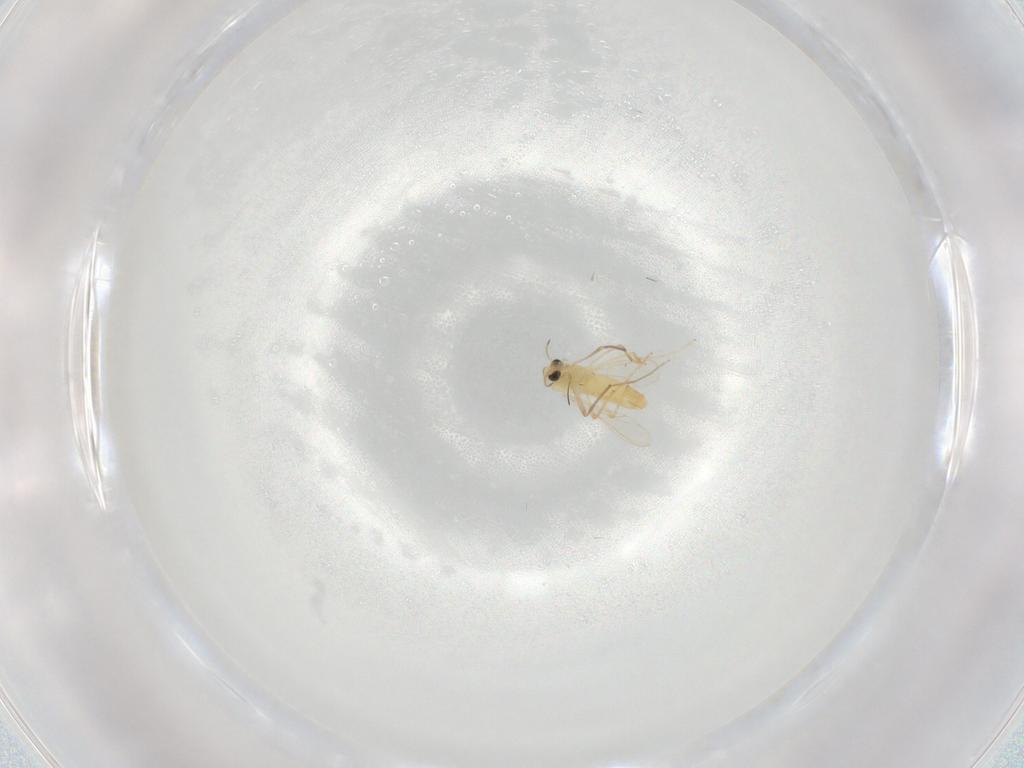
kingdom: Animalia
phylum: Arthropoda
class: Insecta
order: Diptera
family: Chironomidae
